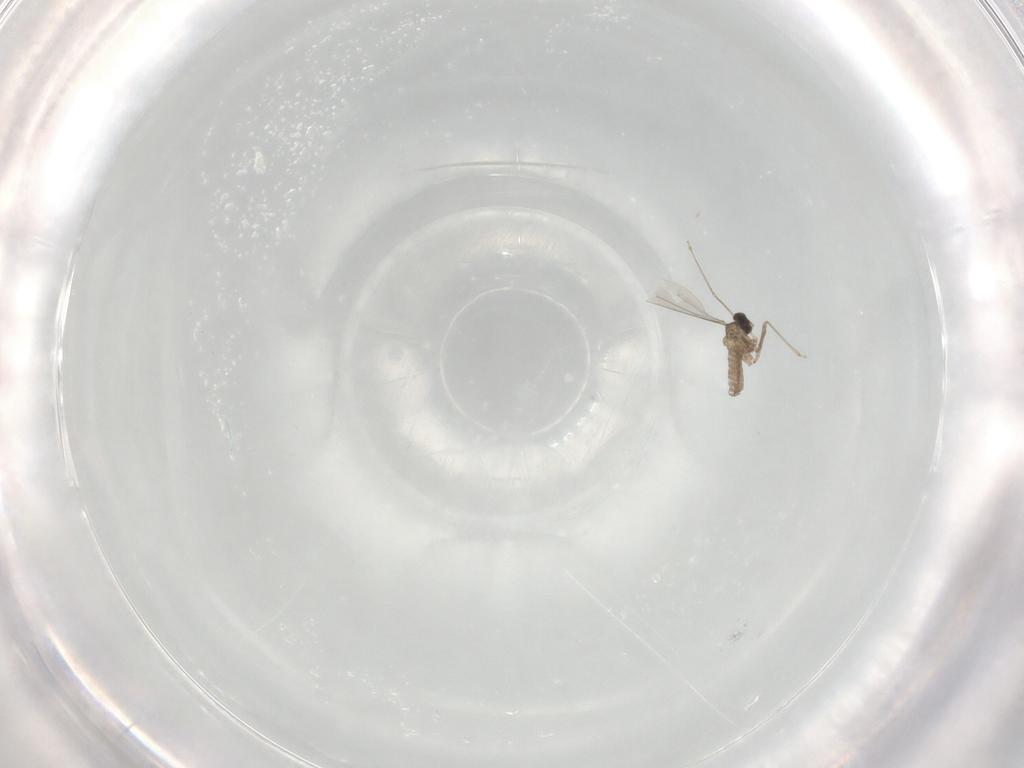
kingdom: Animalia
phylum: Arthropoda
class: Insecta
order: Diptera
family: Cecidomyiidae
